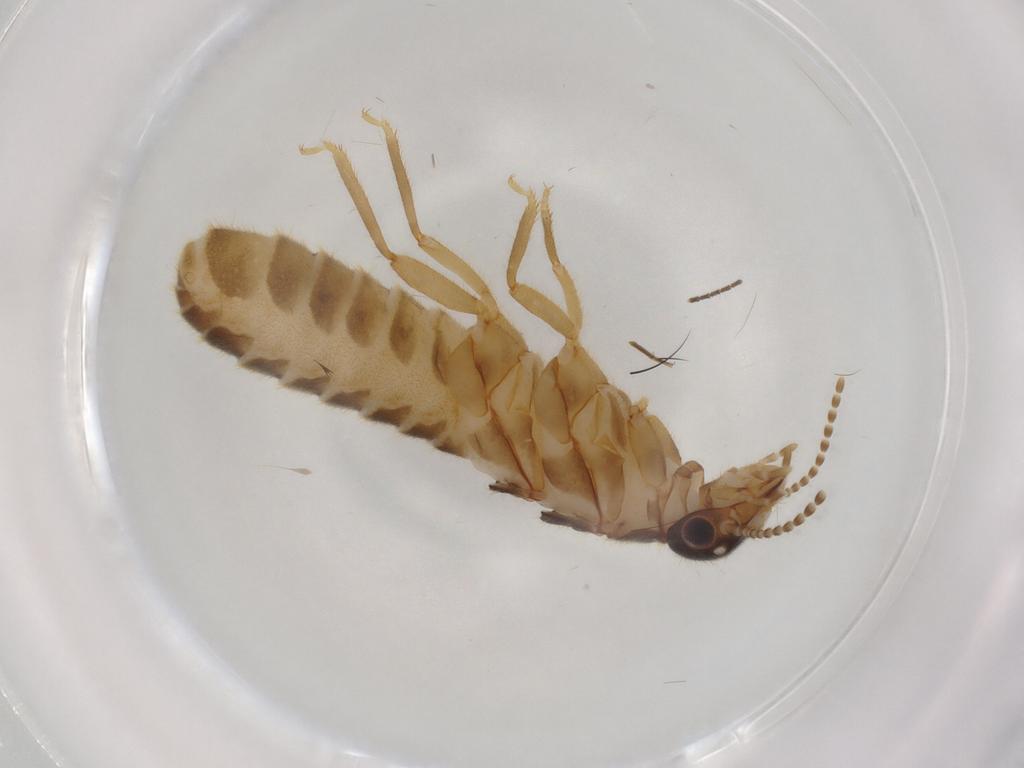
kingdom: Animalia
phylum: Arthropoda
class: Insecta
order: Blattodea
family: Termitidae
